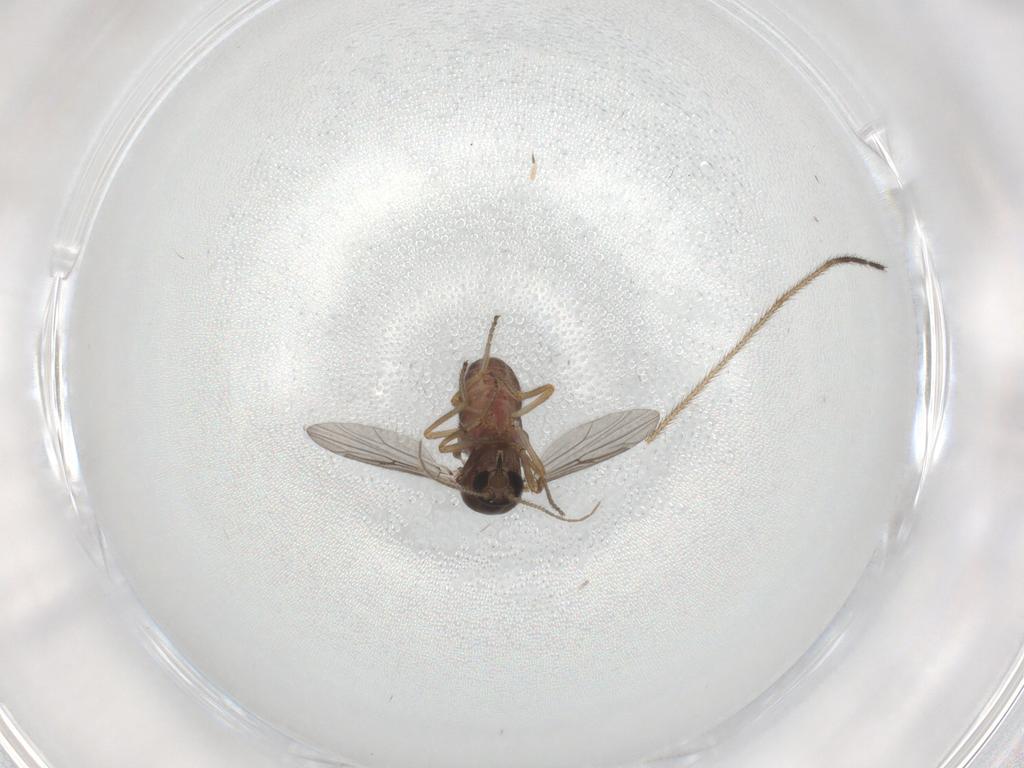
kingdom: Animalia
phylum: Arthropoda
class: Insecta
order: Diptera
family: Ceratopogonidae
